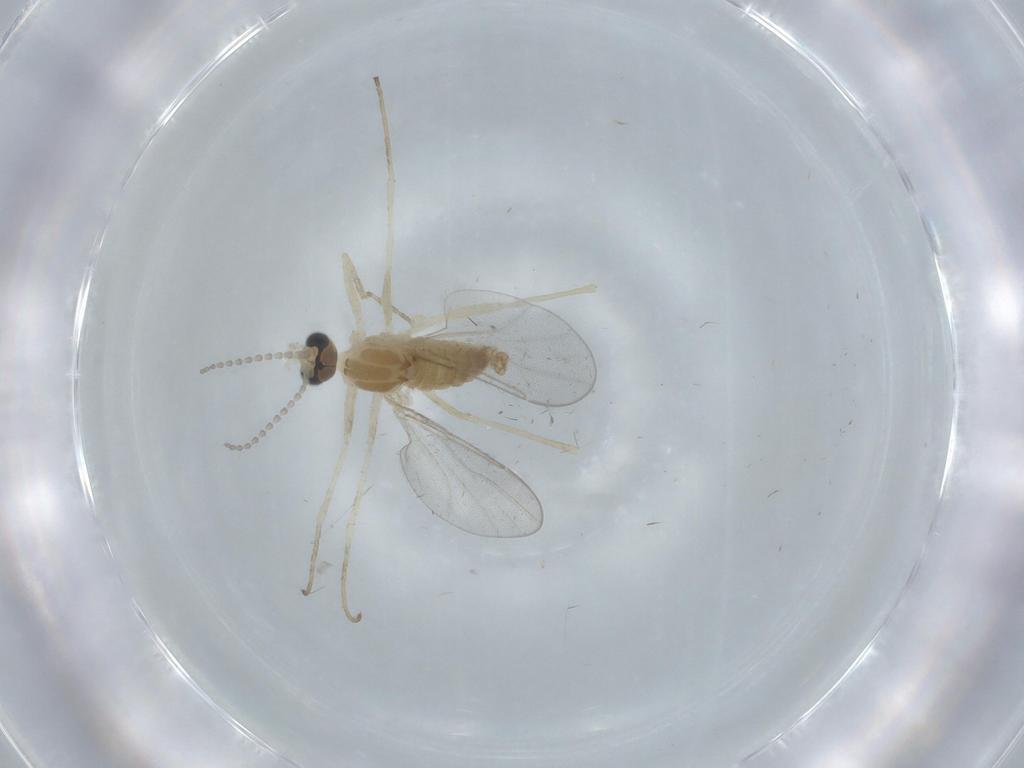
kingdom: Animalia
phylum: Arthropoda
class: Insecta
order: Diptera
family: Cecidomyiidae
